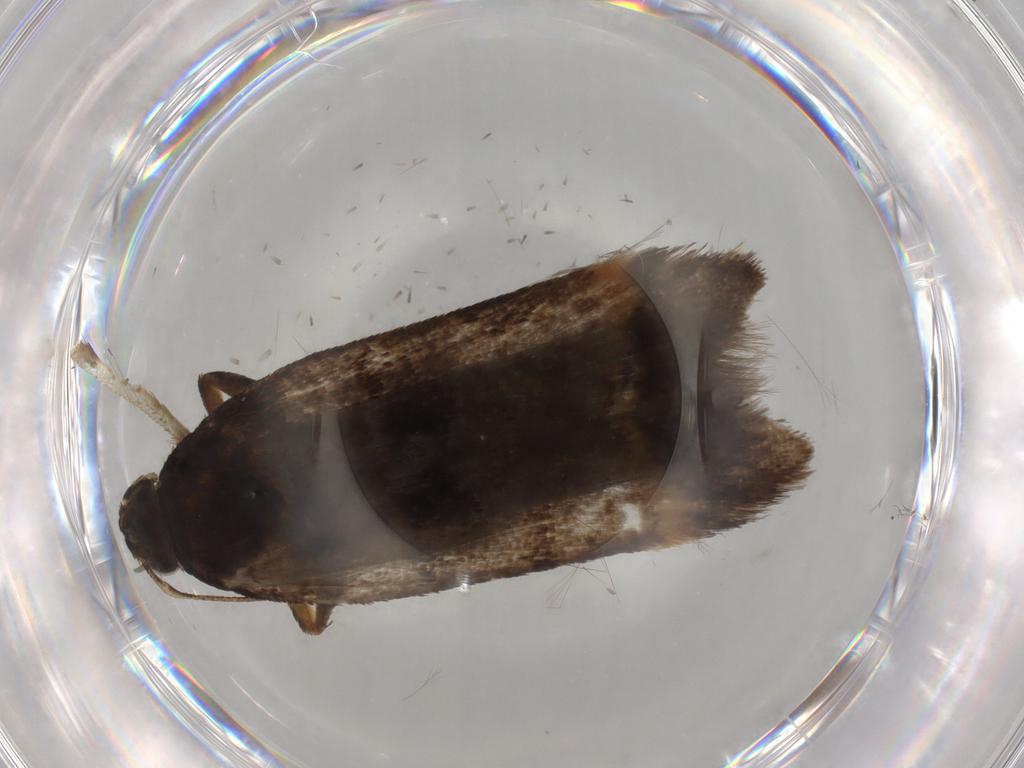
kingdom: Animalia
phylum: Arthropoda
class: Insecta
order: Lepidoptera
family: Gelechiidae
